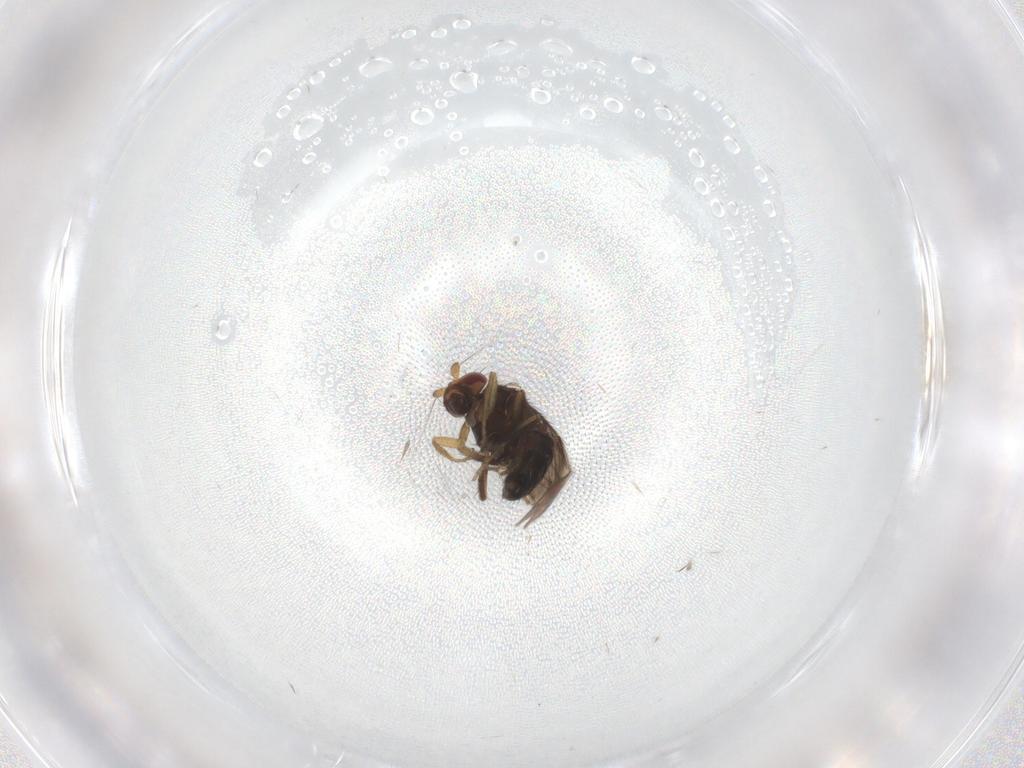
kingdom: Animalia
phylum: Arthropoda
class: Insecta
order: Diptera
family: Sphaeroceridae
